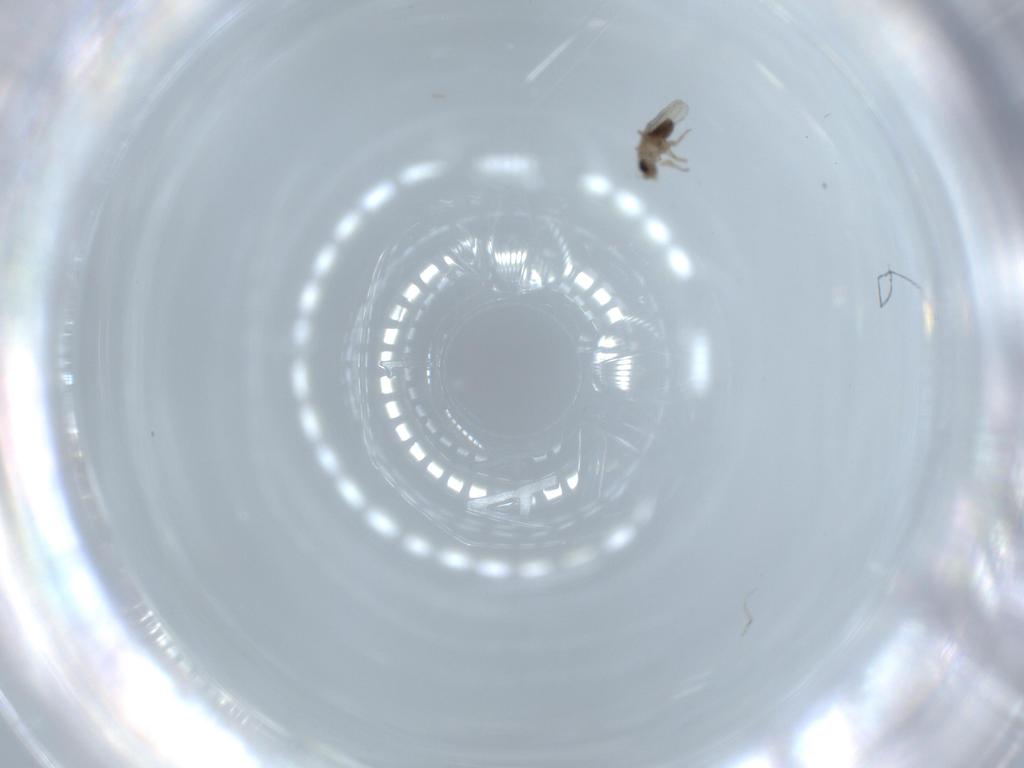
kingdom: Animalia
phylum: Arthropoda
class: Insecta
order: Diptera
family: Phoridae
